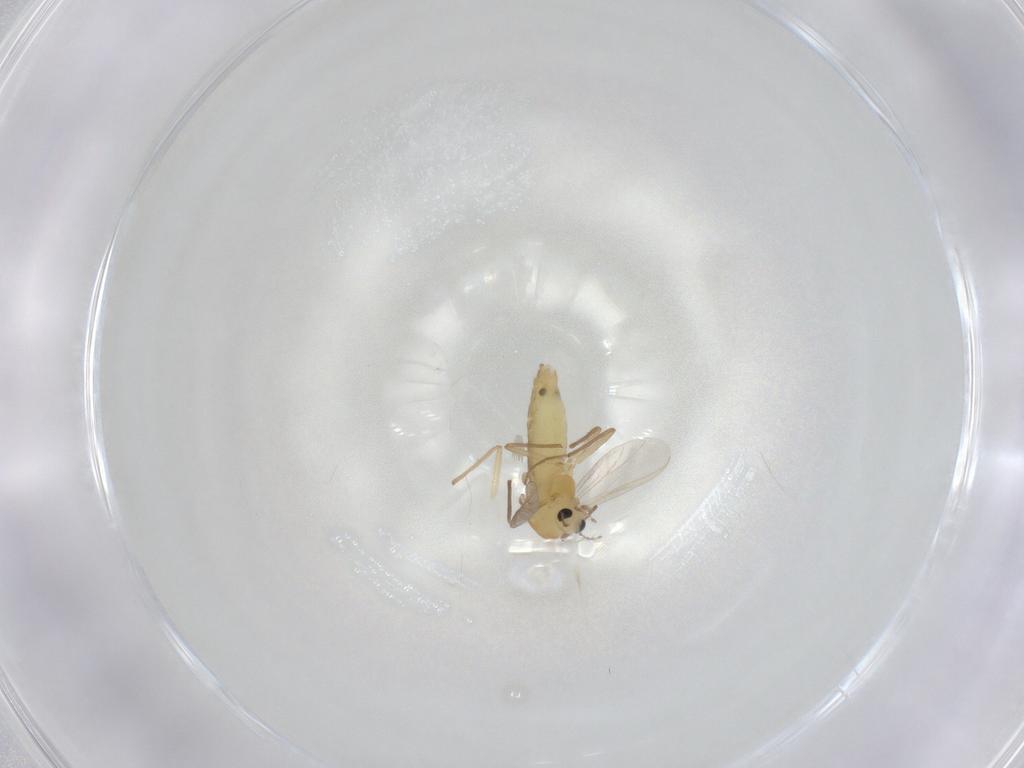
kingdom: Animalia
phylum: Arthropoda
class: Insecta
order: Diptera
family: Chironomidae
